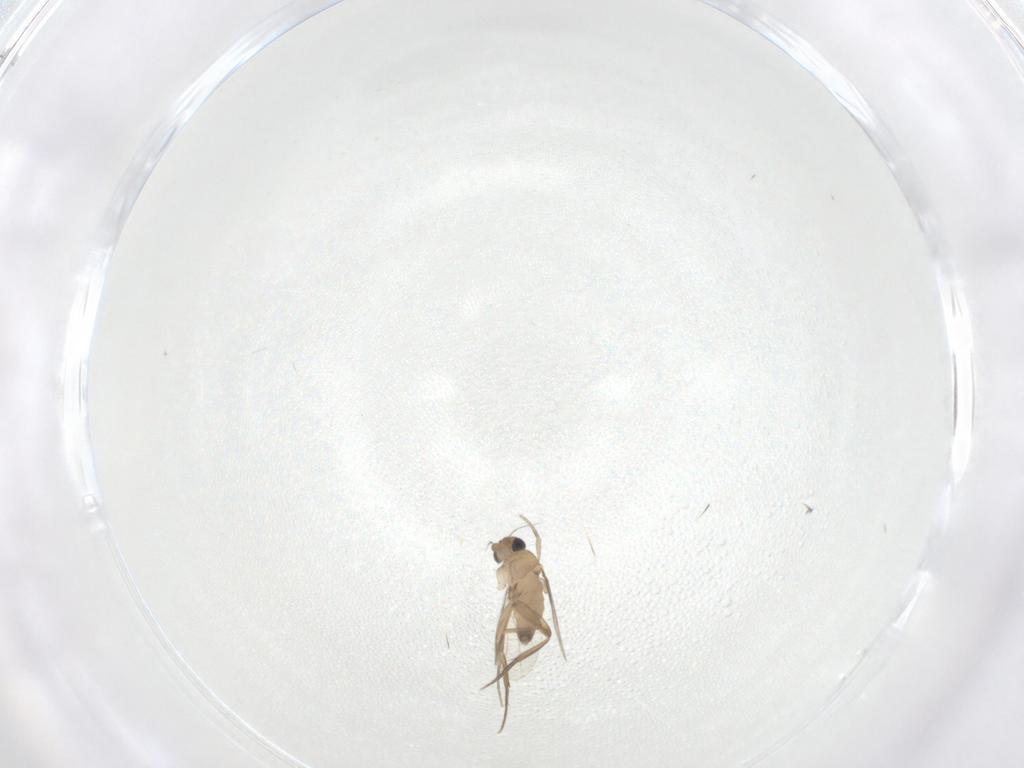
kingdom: Animalia
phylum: Arthropoda
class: Insecta
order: Diptera
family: Phoridae
